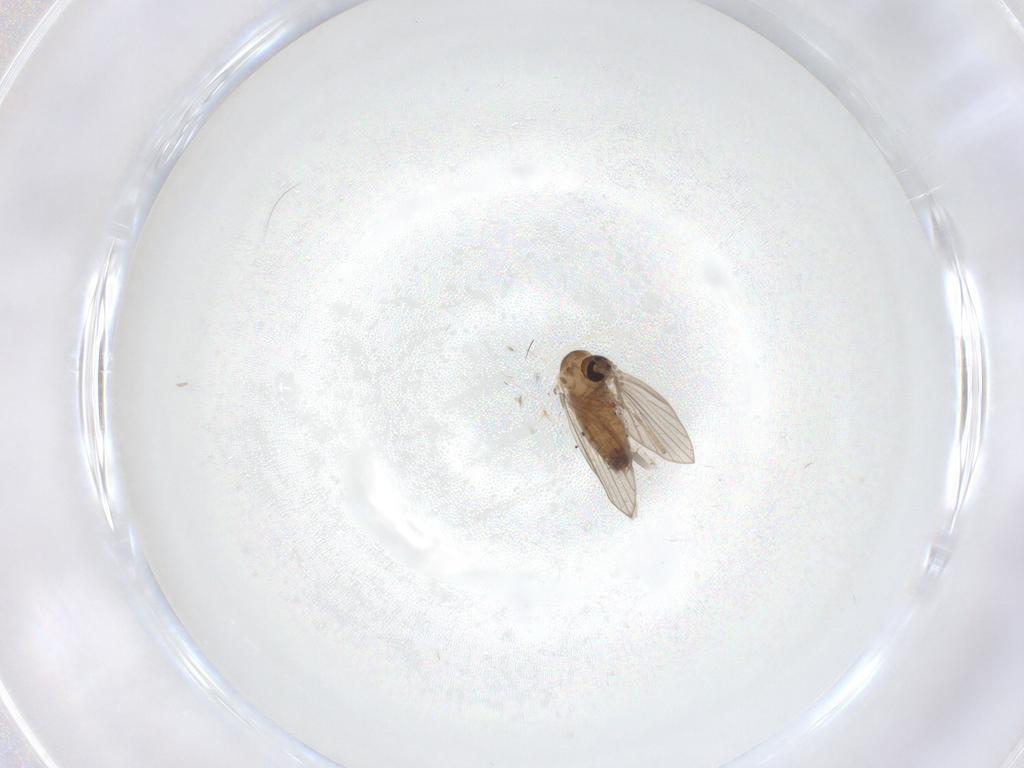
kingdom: Animalia
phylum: Arthropoda
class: Insecta
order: Diptera
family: Psychodidae
